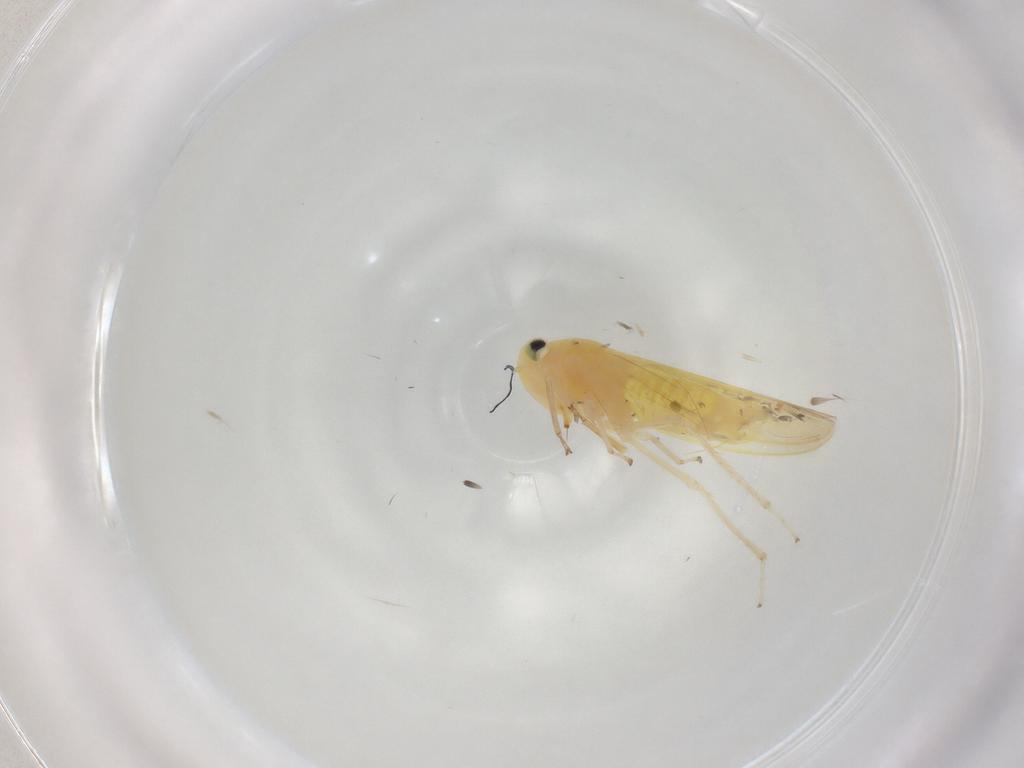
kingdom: Animalia
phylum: Arthropoda
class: Insecta
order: Hemiptera
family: Cicadellidae
